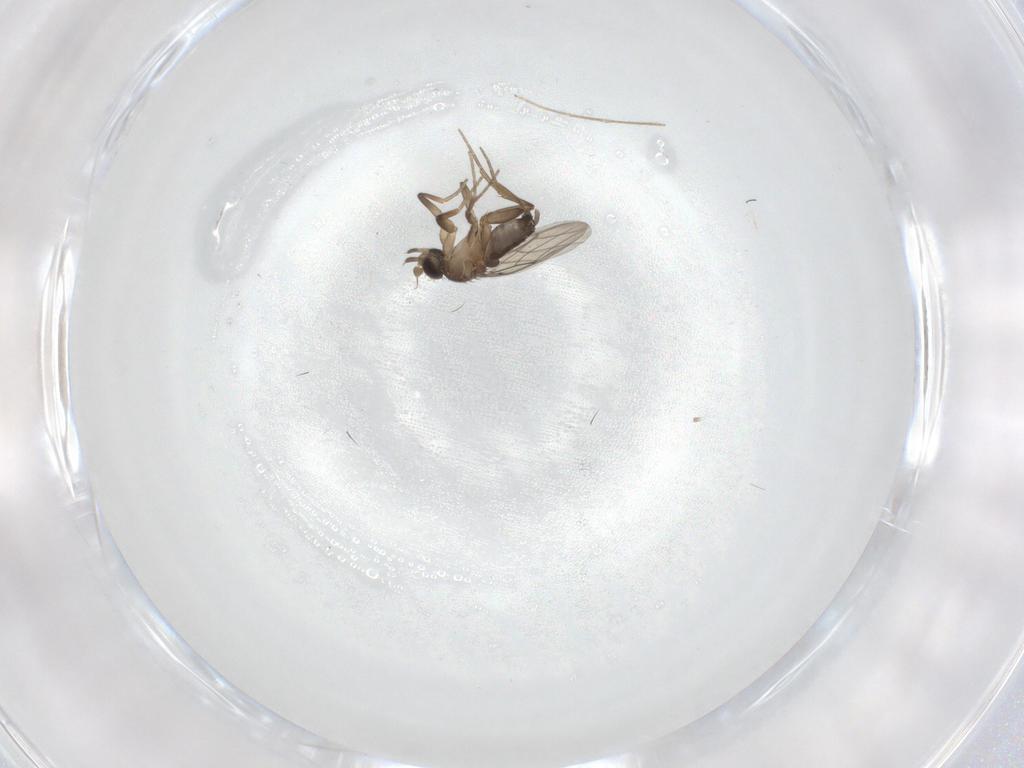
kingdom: Animalia
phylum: Arthropoda
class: Insecta
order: Diptera
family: Phoridae
